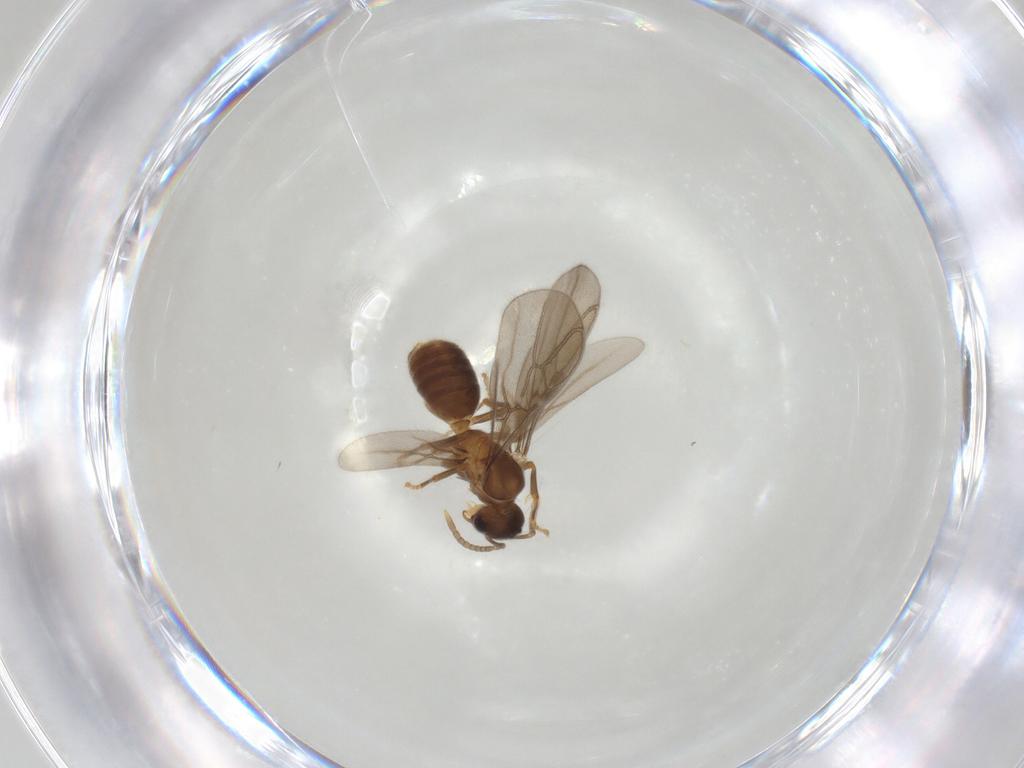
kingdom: Animalia
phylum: Arthropoda
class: Insecta
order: Hymenoptera
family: Formicidae
